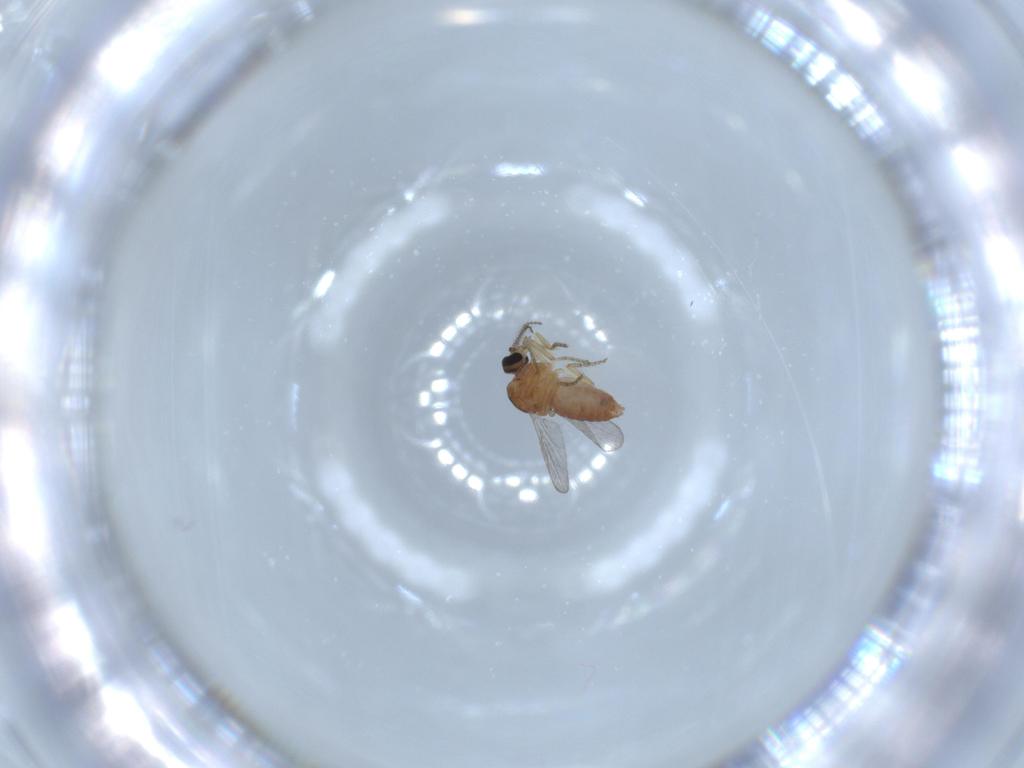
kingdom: Animalia
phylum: Arthropoda
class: Insecta
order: Diptera
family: Ceratopogonidae
